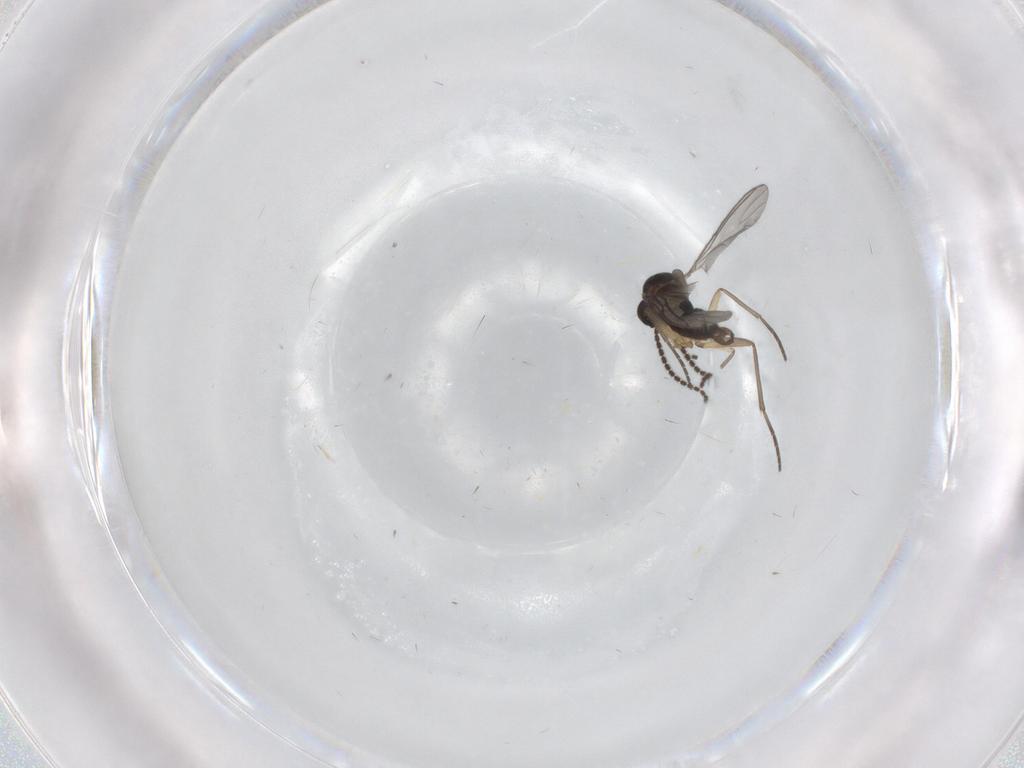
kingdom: Animalia
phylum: Arthropoda
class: Insecta
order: Diptera
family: Sciaridae
